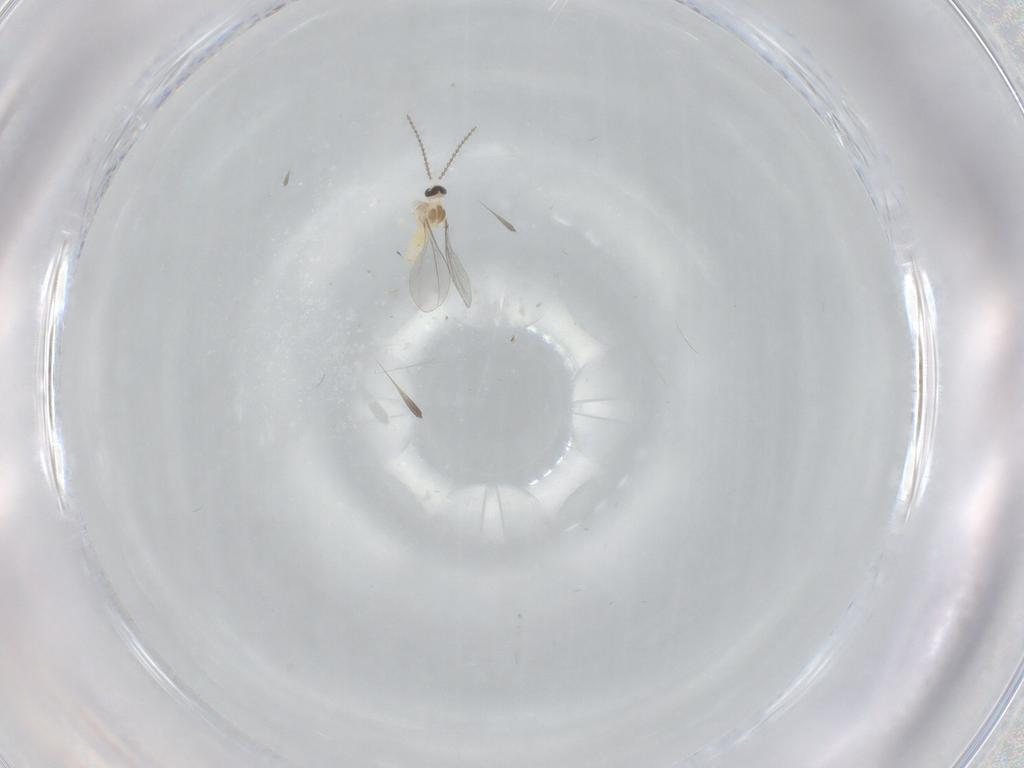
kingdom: Animalia
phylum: Arthropoda
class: Insecta
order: Diptera
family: Cecidomyiidae
